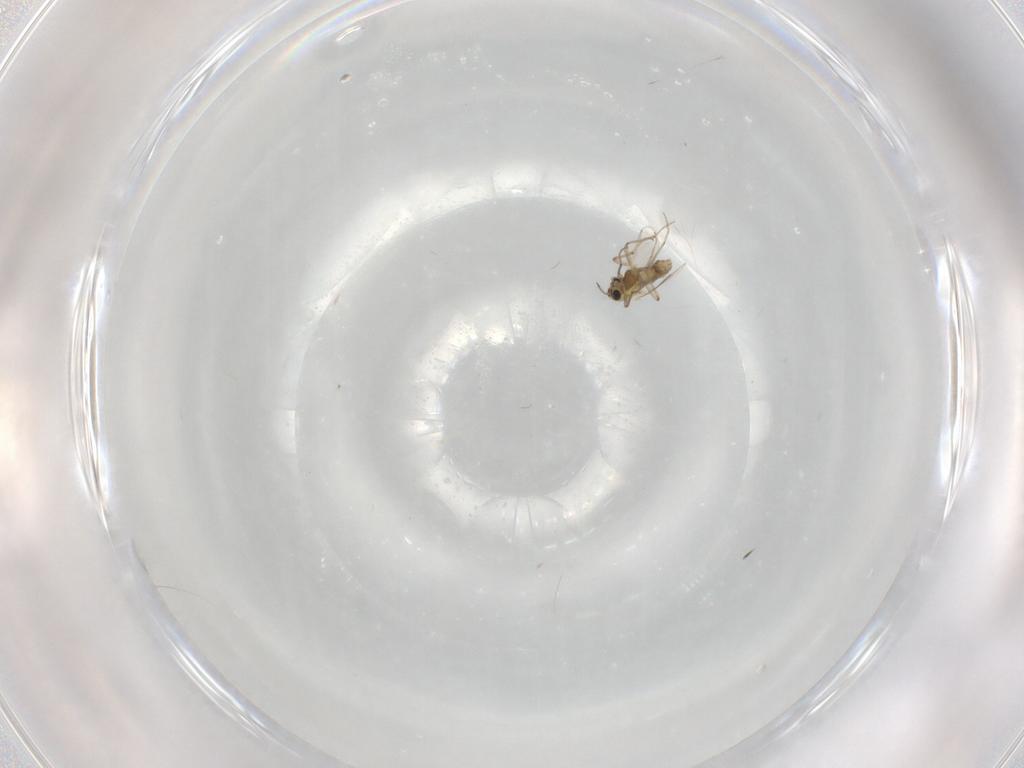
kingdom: Animalia
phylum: Arthropoda
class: Insecta
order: Diptera
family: Chironomidae
